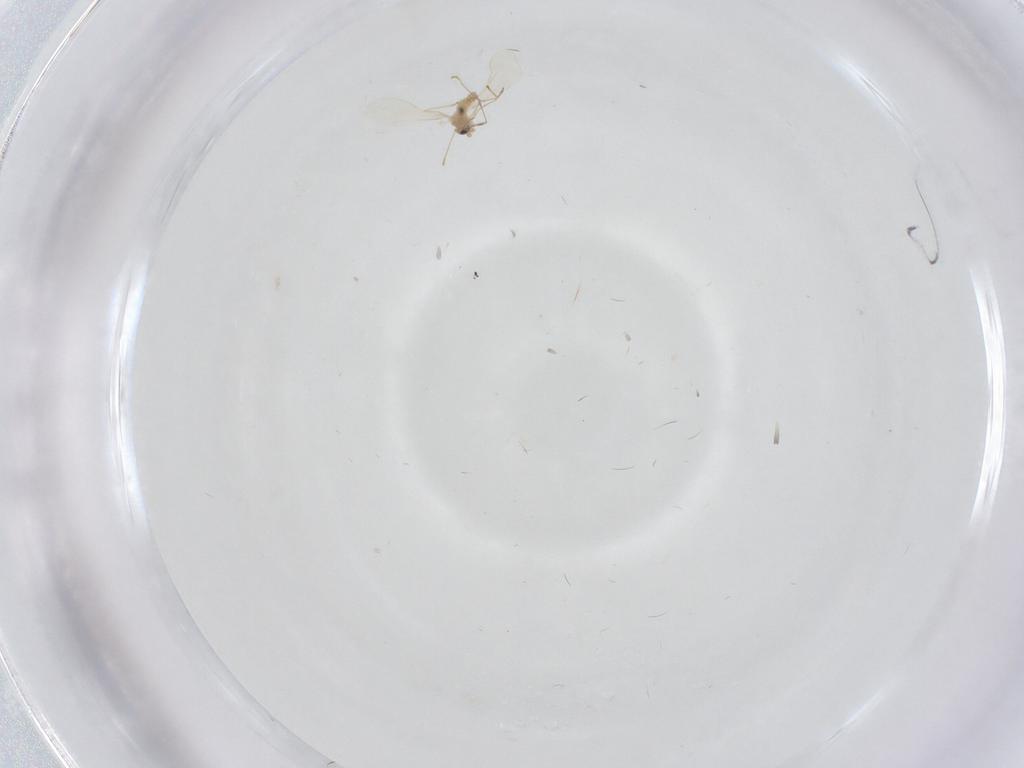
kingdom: Animalia
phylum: Arthropoda
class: Insecta
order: Diptera
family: Cecidomyiidae
